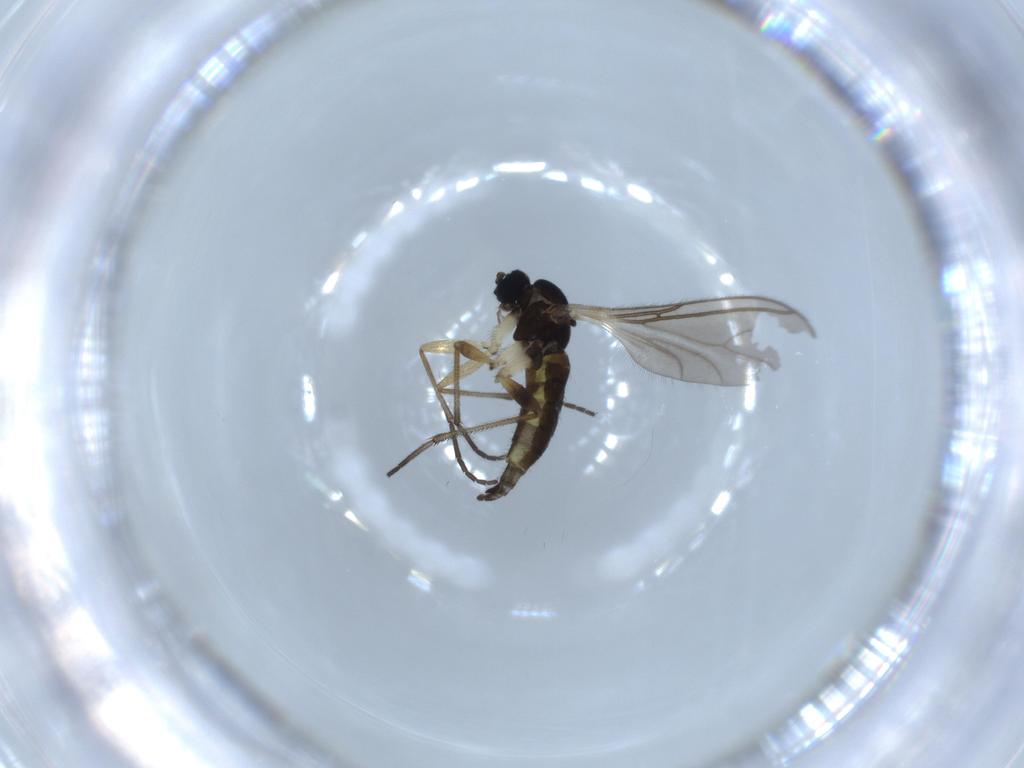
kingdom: Animalia
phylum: Arthropoda
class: Insecta
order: Diptera
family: Sciaridae
